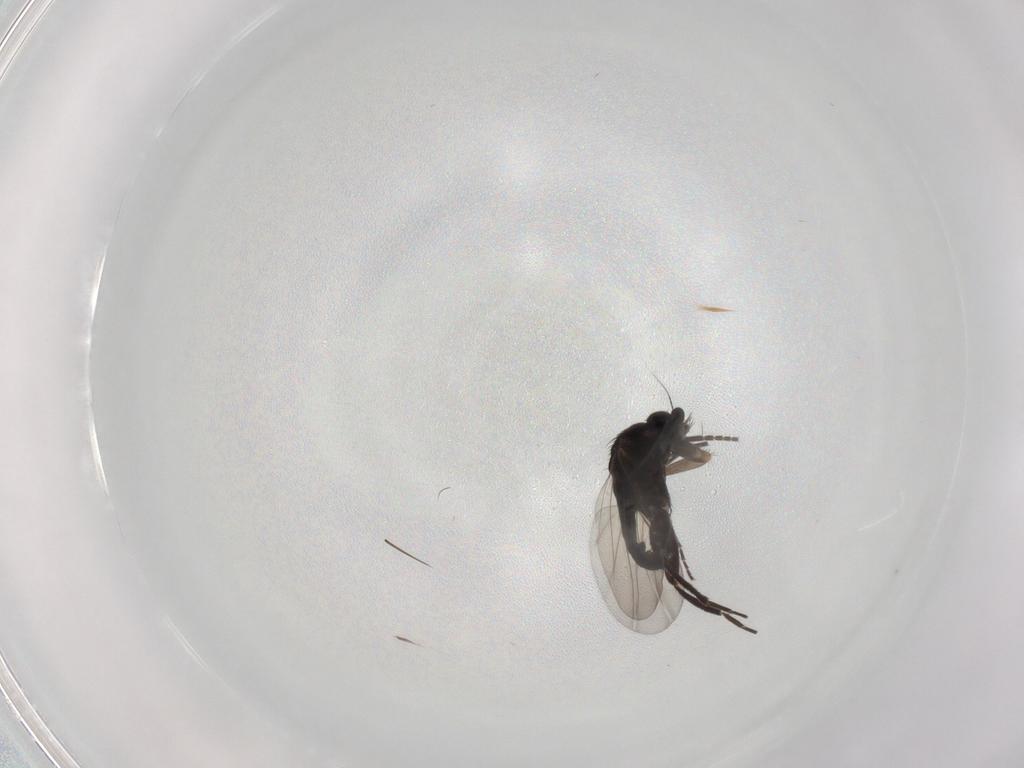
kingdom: Animalia
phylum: Arthropoda
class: Insecta
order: Diptera
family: Phoridae
